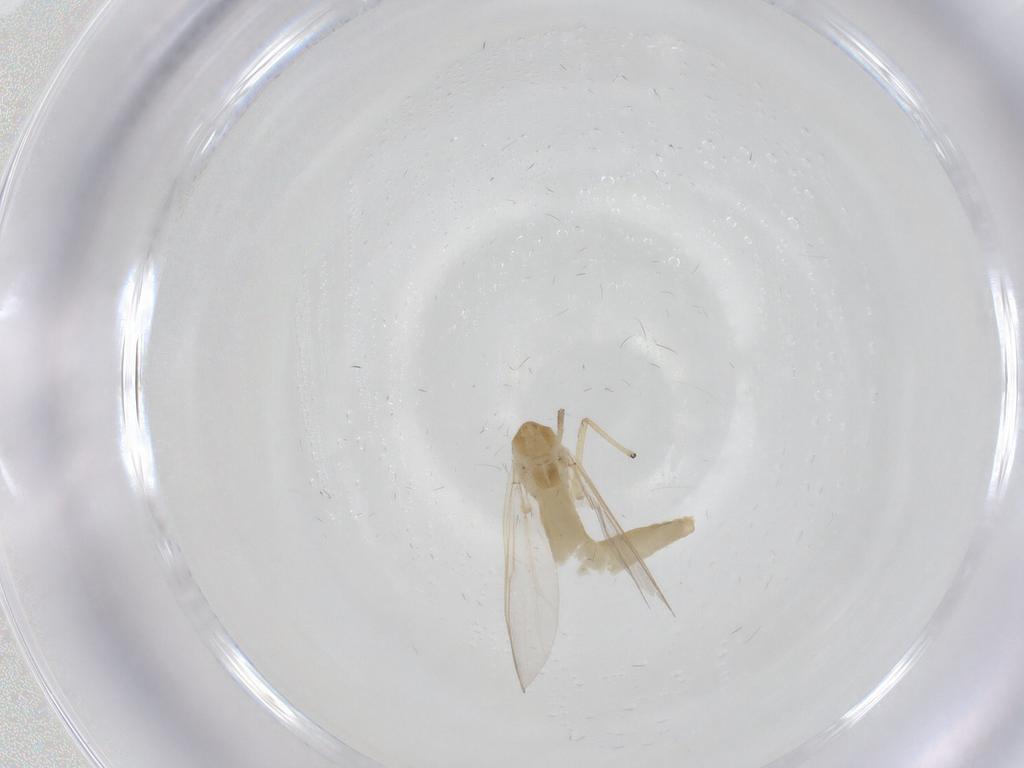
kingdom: Animalia
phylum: Arthropoda
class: Insecta
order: Diptera
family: Chironomidae
